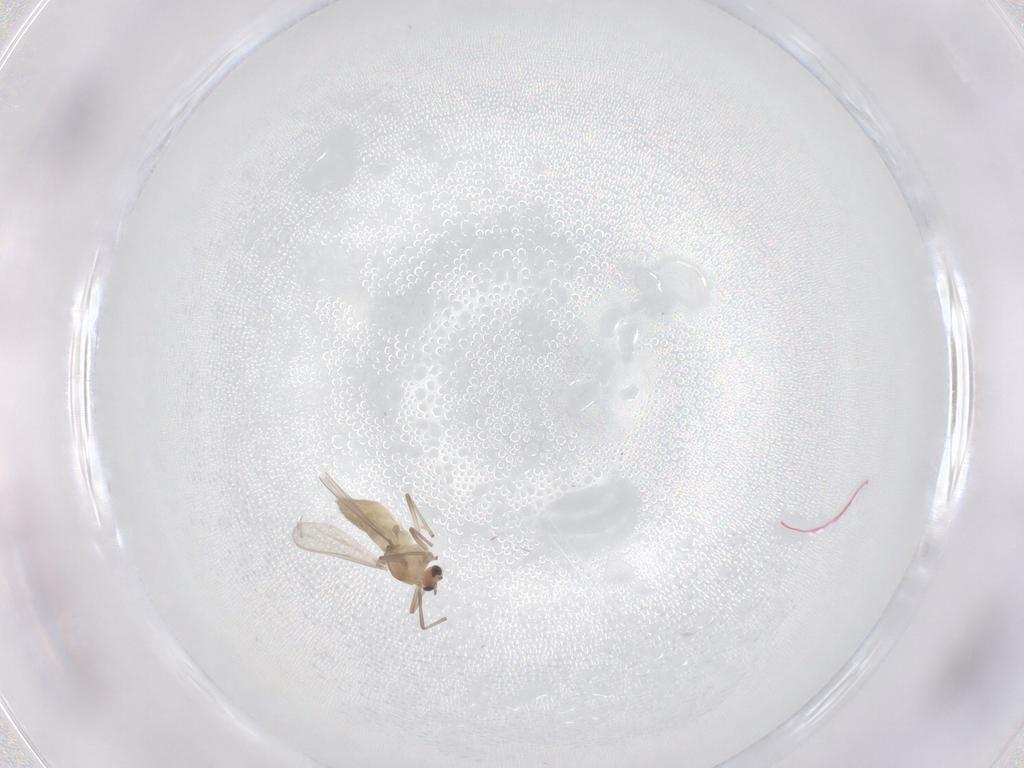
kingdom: Animalia
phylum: Arthropoda
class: Insecta
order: Diptera
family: Chironomidae
